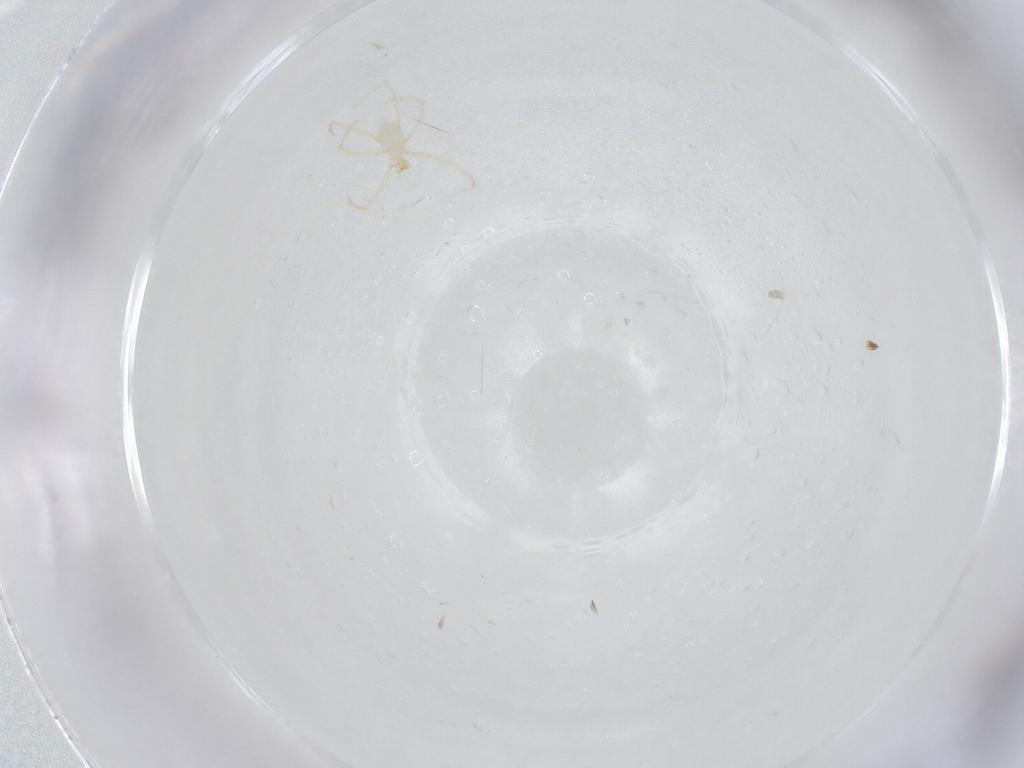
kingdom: Animalia
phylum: Arthropoda
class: Arachnida
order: Trombidiformes
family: Erythraeidae
